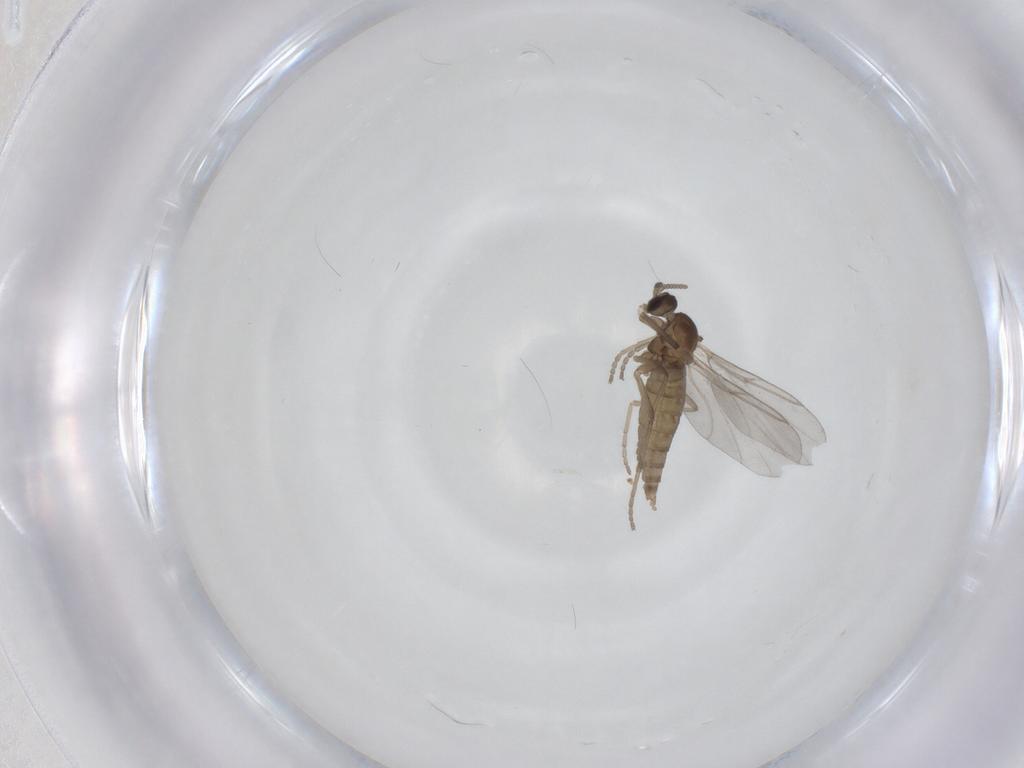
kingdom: Animalia
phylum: Arthropoda
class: Insecta
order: Diptera
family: Cecidomyiidae
